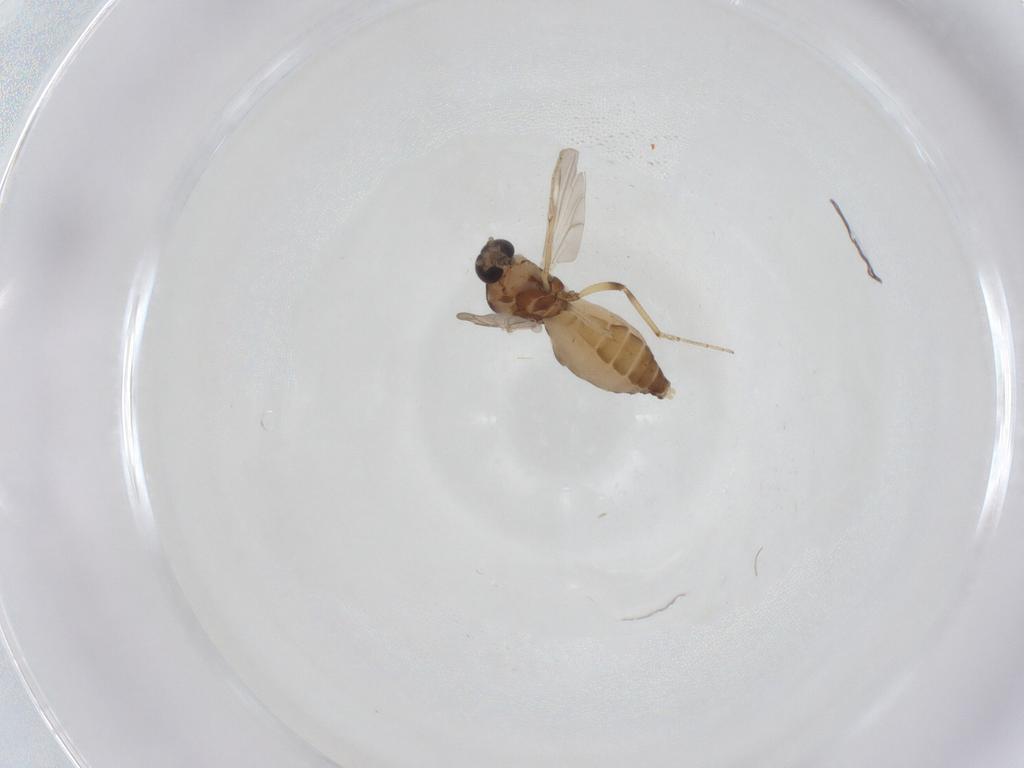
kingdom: Animalia
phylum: Arthropoda
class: Insecta
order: Diptera
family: Ceratopogonidae
